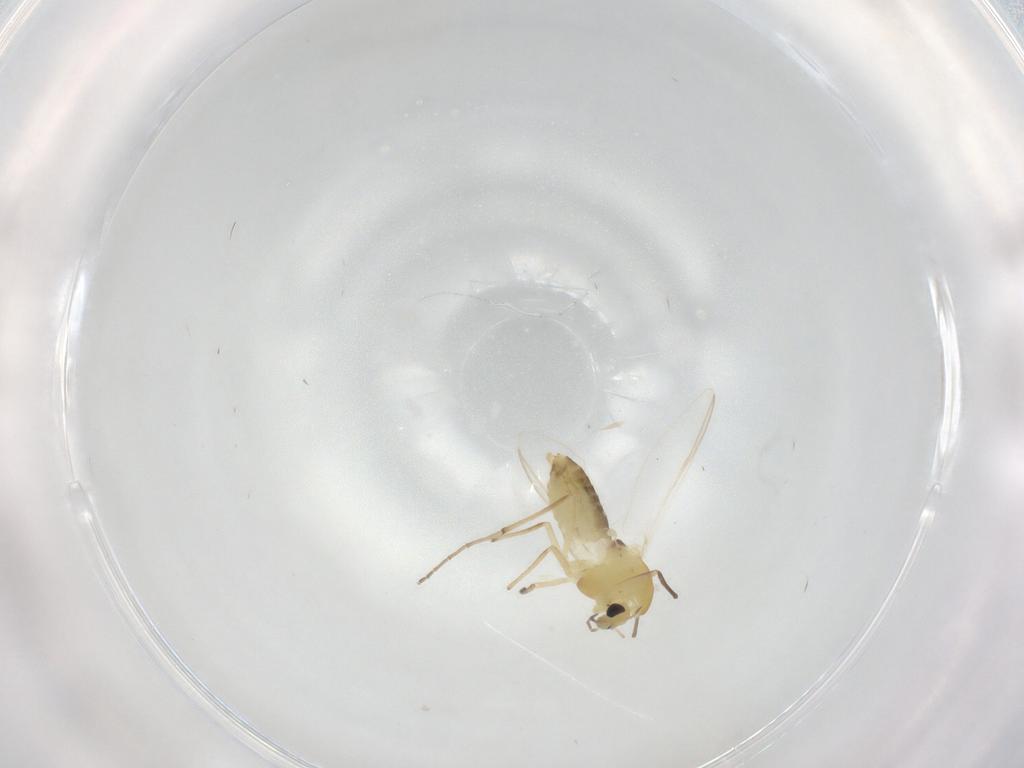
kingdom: Animalia
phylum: Arthropoda
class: Insecta
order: Diptera
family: Chironomidae
